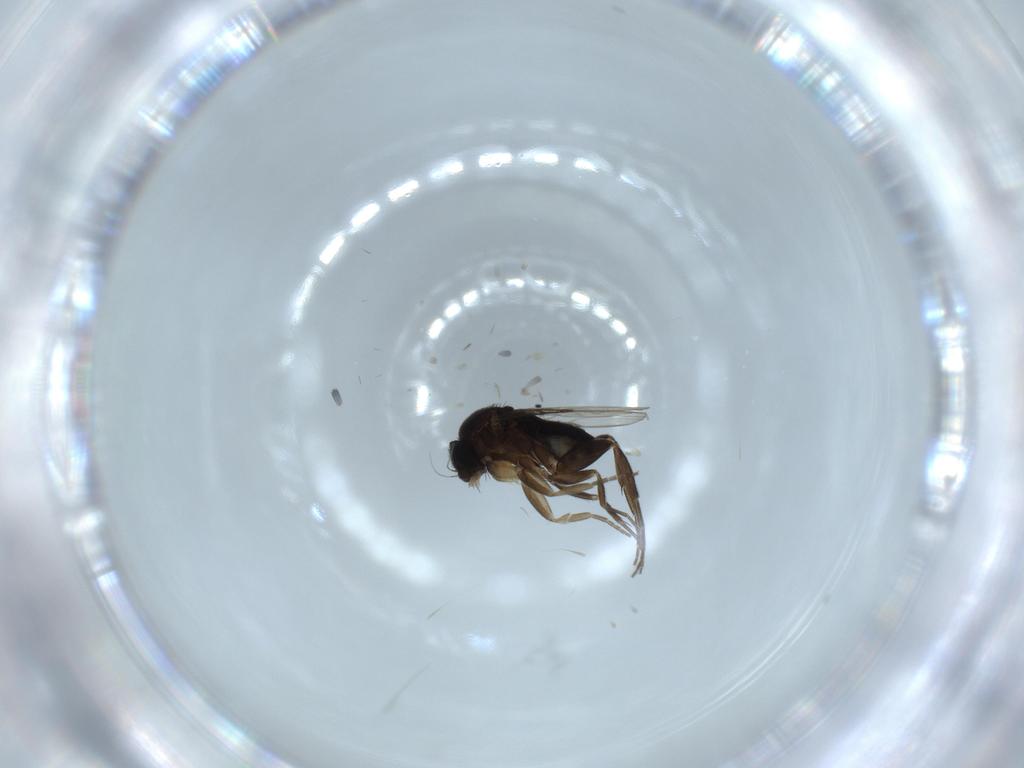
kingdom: Animalia
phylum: Arthropoda
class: Insecta
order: Diptera
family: Phoridae
